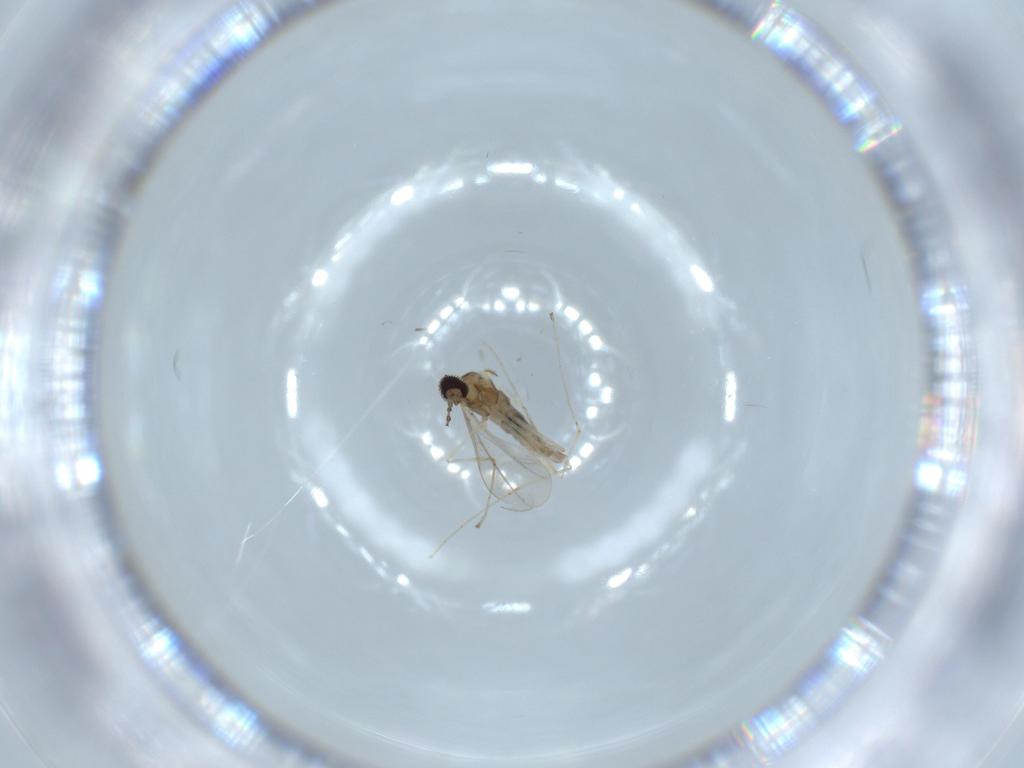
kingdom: Animalia
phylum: Arthropoda
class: Insecta
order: Diptera
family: Cecidomyiidae
